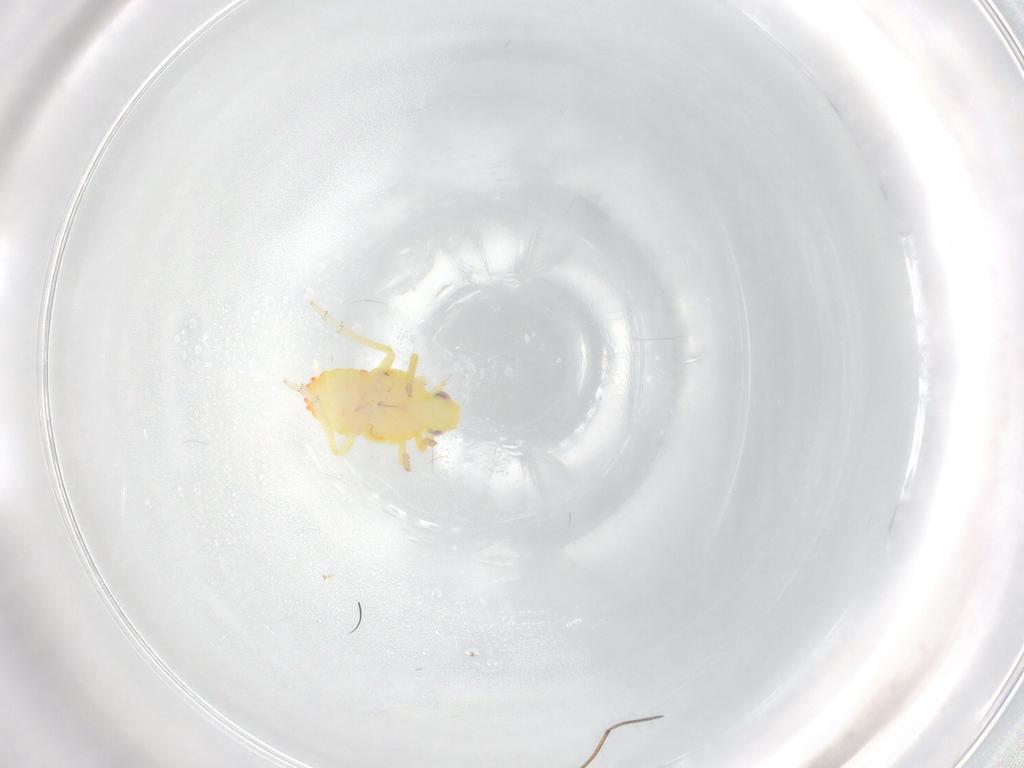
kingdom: Animalia
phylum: Arthropoda
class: Insecta
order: Hemiptera
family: Tropiduchidae
